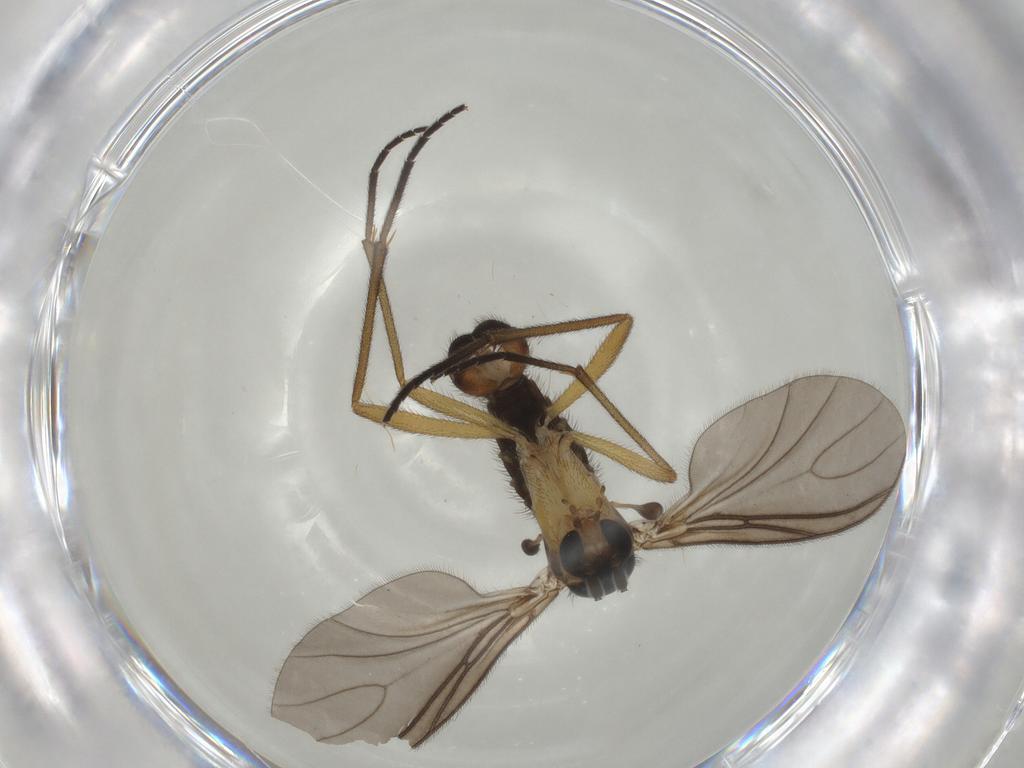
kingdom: Animalia
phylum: Arthropoda
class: Insecta
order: Diptera
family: Sciaridae
